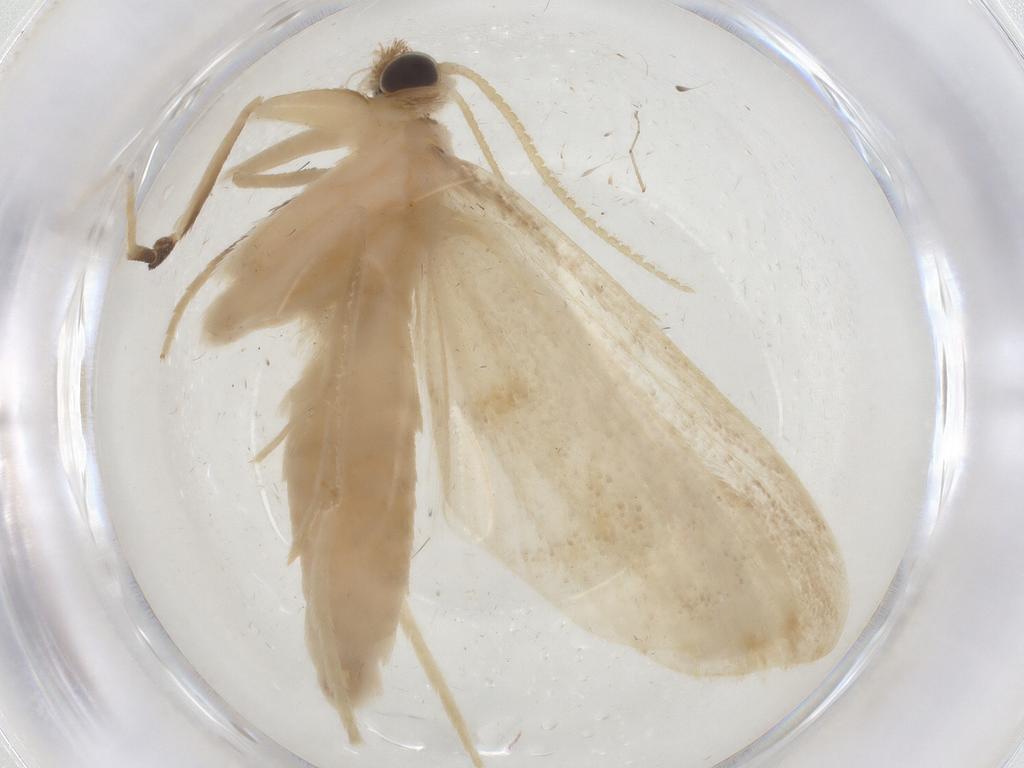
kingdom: Animalia
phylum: Arthropoda
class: Insecta
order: Lepidoptera
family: Crambidae
